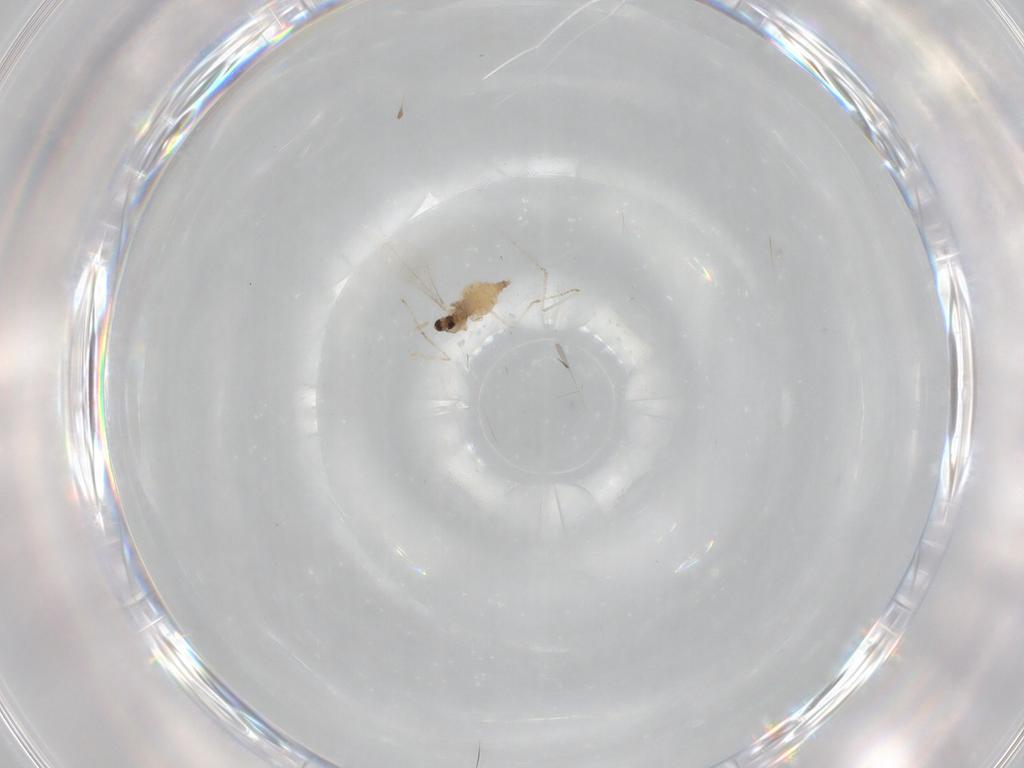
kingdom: Animalia
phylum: Arthropoda
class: Insecta
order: Diptera
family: Cecidomyiidae
